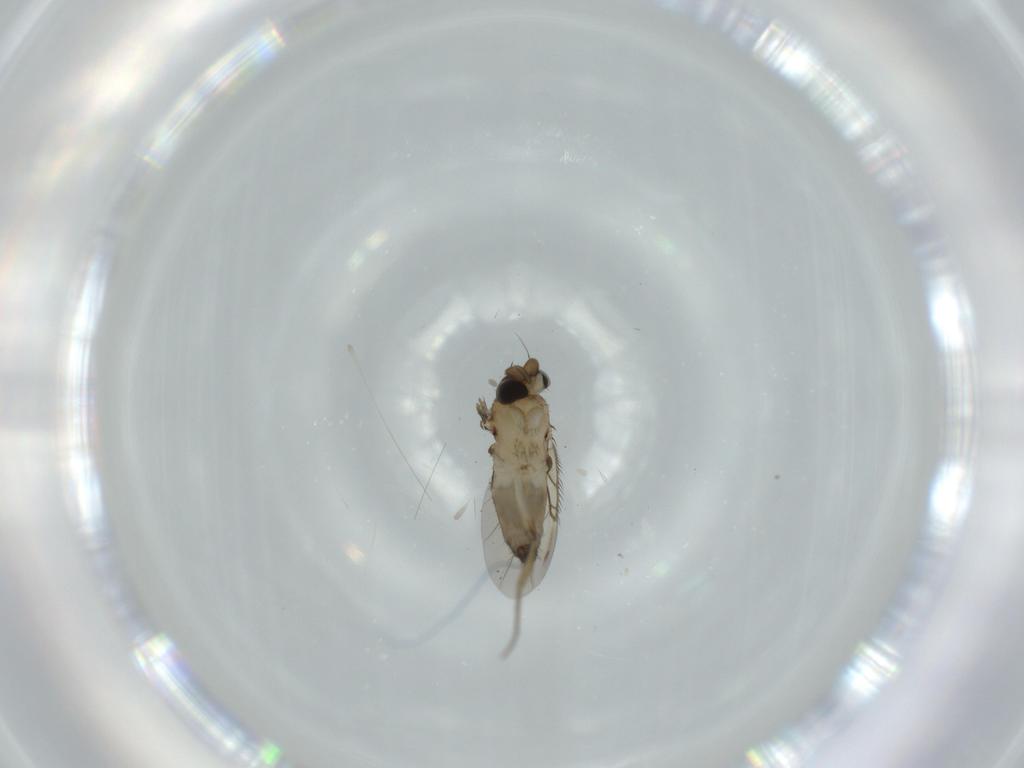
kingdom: Animalia
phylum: Arthropoda
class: Insecta
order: Diptera
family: Phoridae
